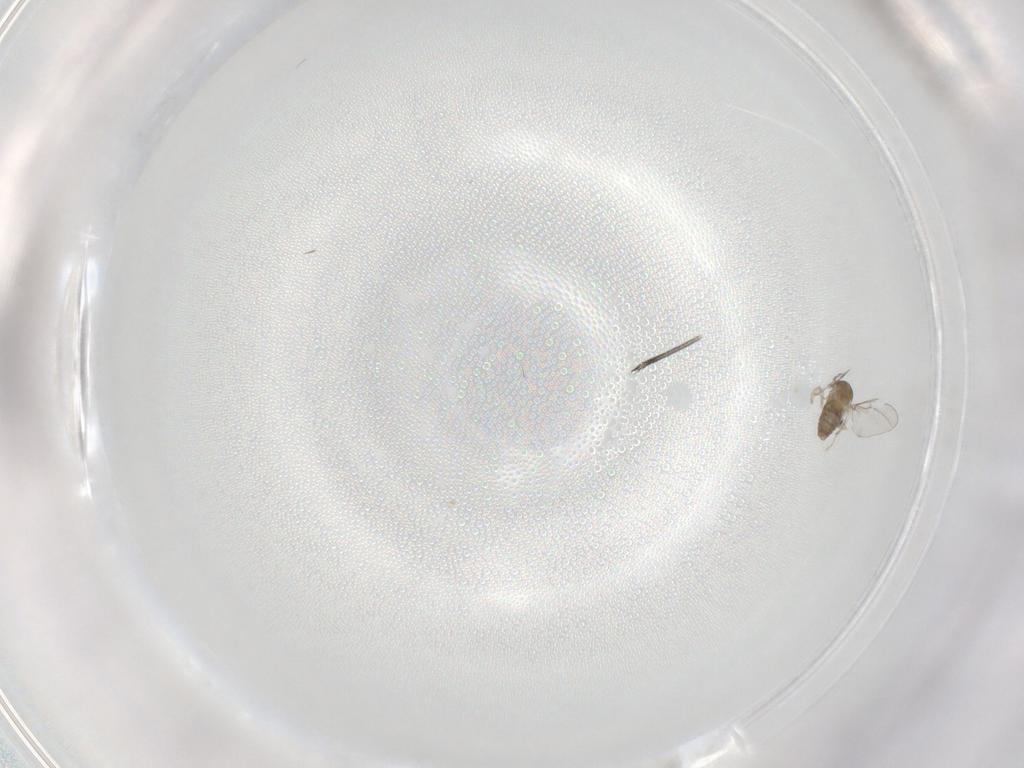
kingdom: Animalia
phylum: Arthropoda
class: Insecta
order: Diptera
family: Cecidomyiidae
